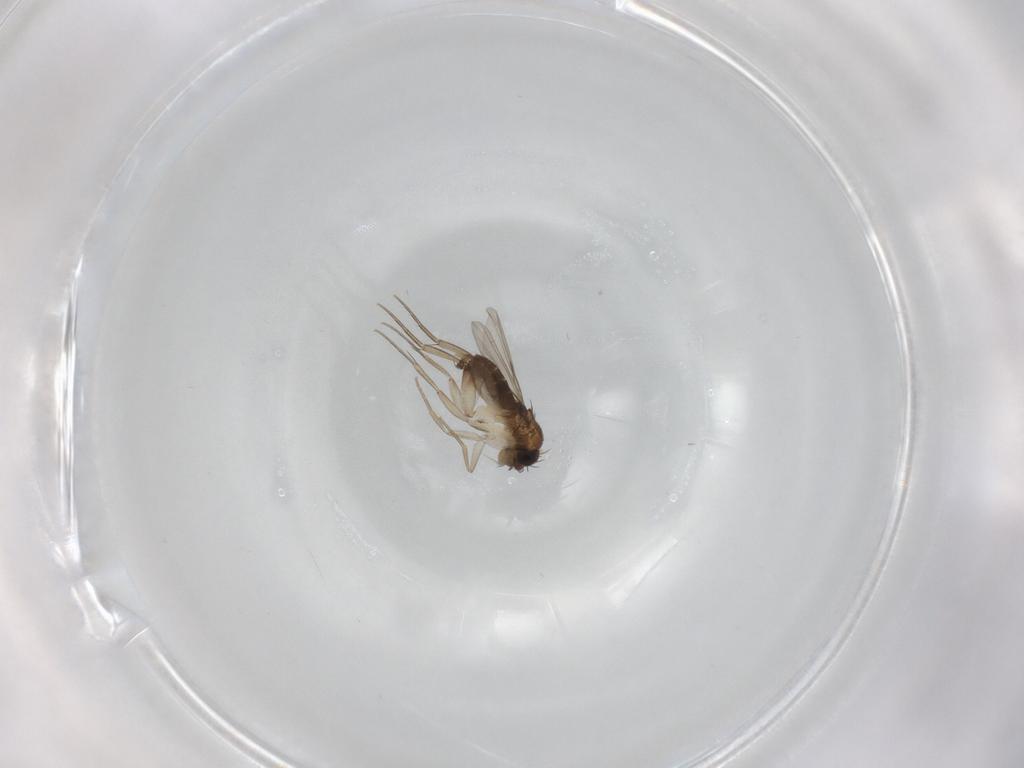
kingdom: Animalia
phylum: Arthropoda
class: Insecta
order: Diptera
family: Phoridae
